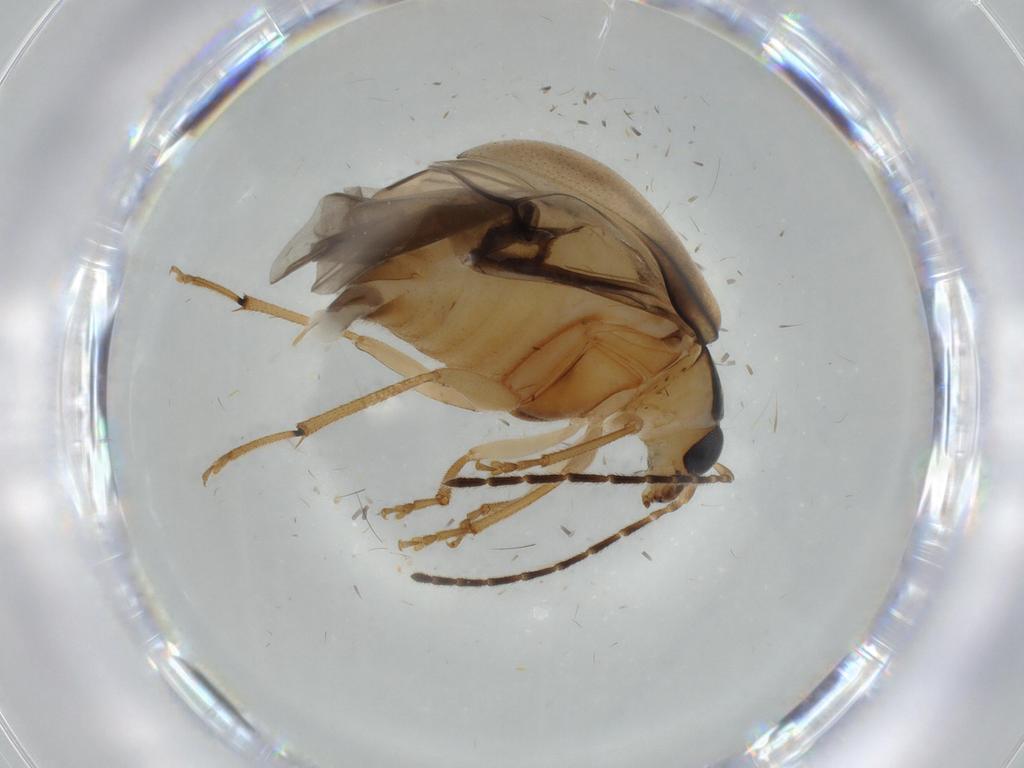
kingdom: Animalia
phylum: Arthropoda
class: Insecta
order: Coleoptera
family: Chrysomelidae
